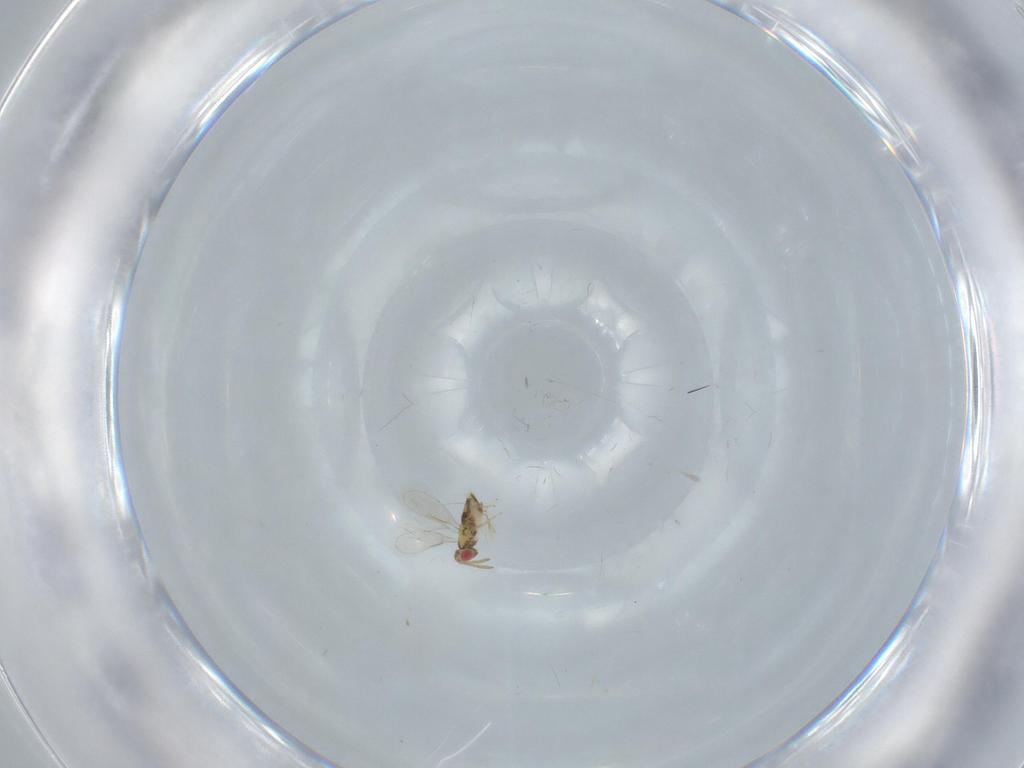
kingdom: Animalia
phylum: Arthropoda
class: Insecta
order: Hymenoptera
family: Aphelinidae
